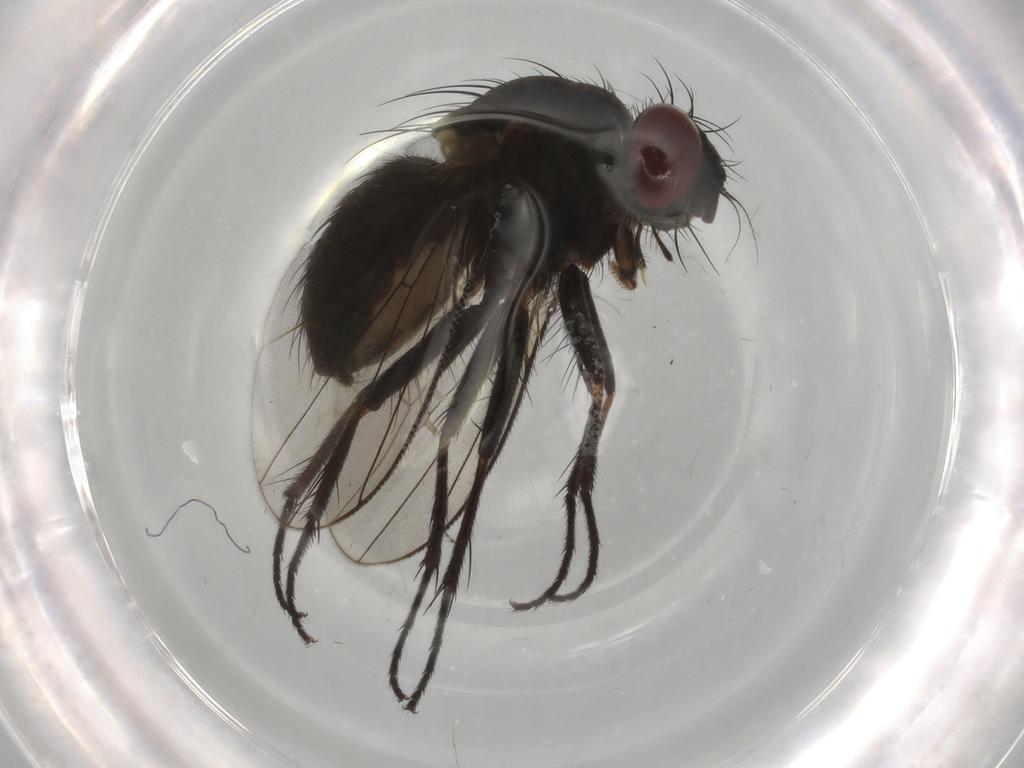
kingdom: Animalia
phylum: Arthropoda
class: Insecta
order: Diptera
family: Muscidae
